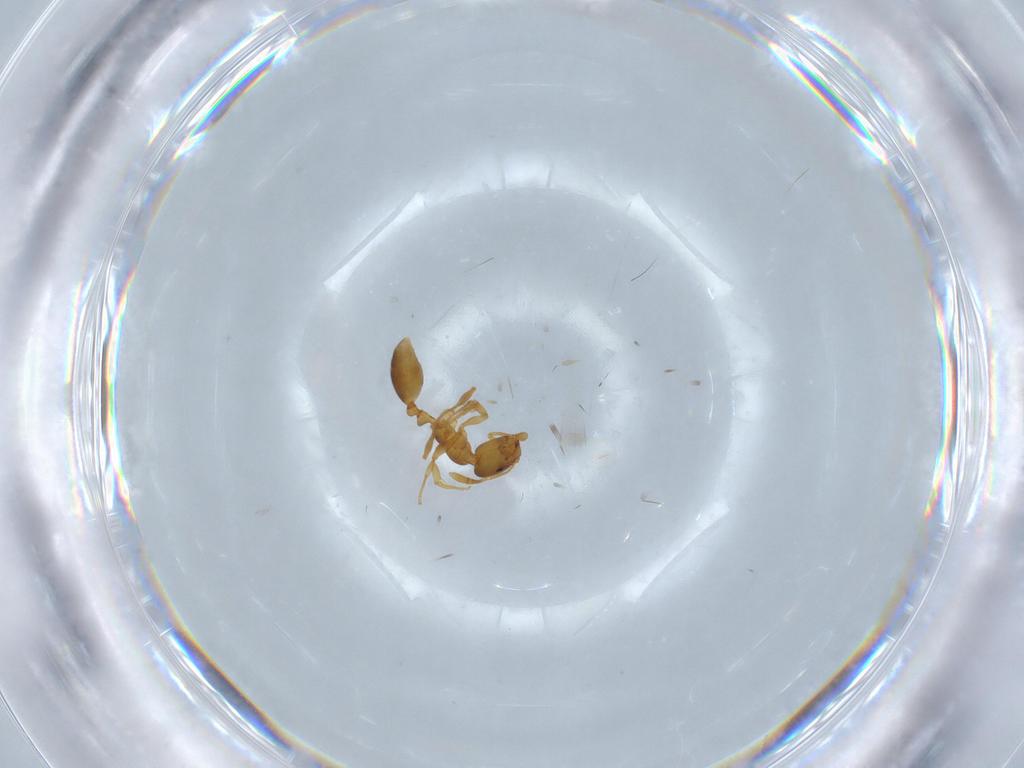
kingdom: Animalia
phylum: Arthropoda
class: Insecta
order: Hymenoptera
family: Formicidae
